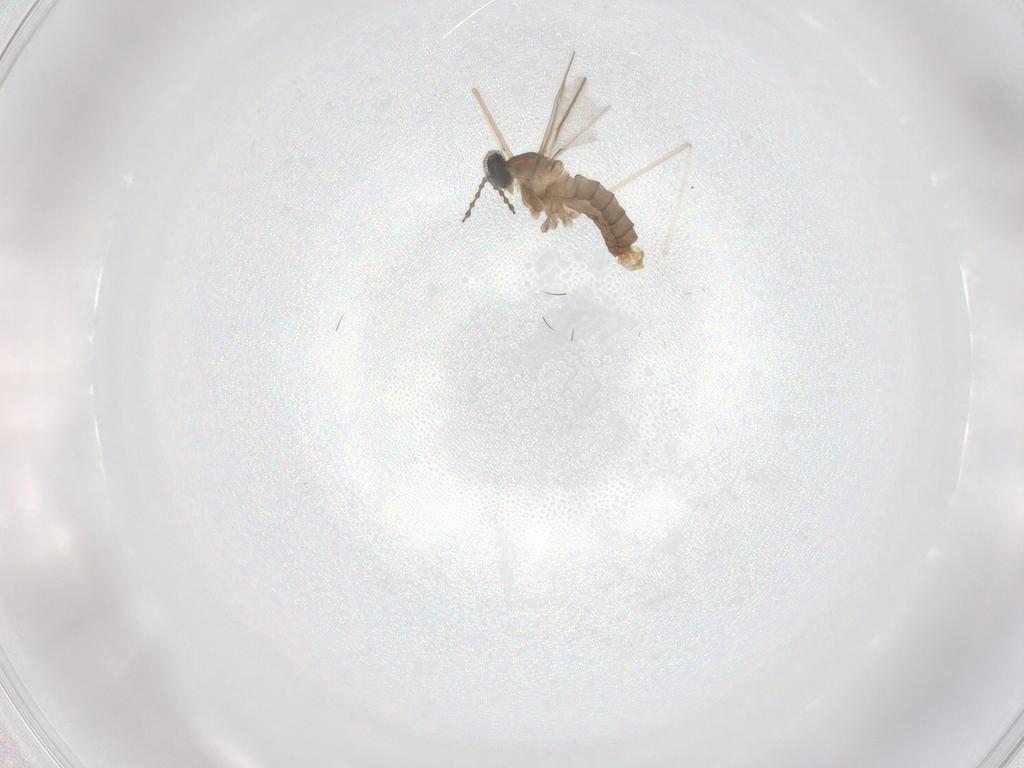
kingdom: Animalia
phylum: Arthropoda
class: Insecta
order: Diptera
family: Cecidomyiidae
